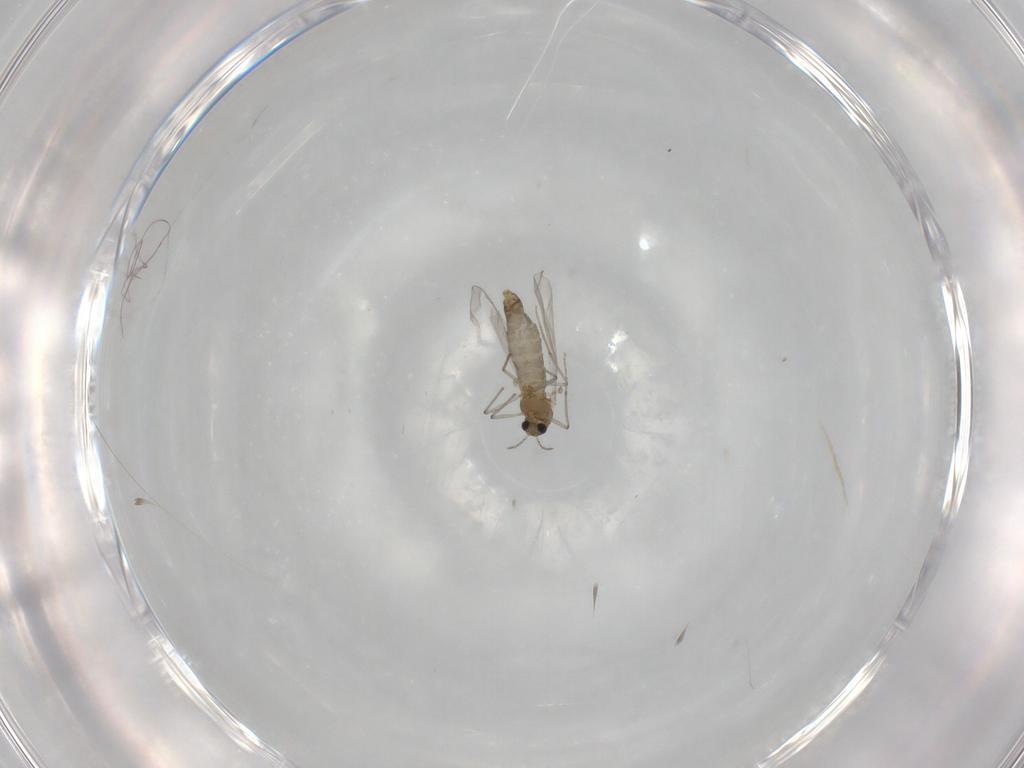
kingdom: Animalia
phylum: Arthropoda
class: Insecta
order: Diptera
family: Chironomidae
